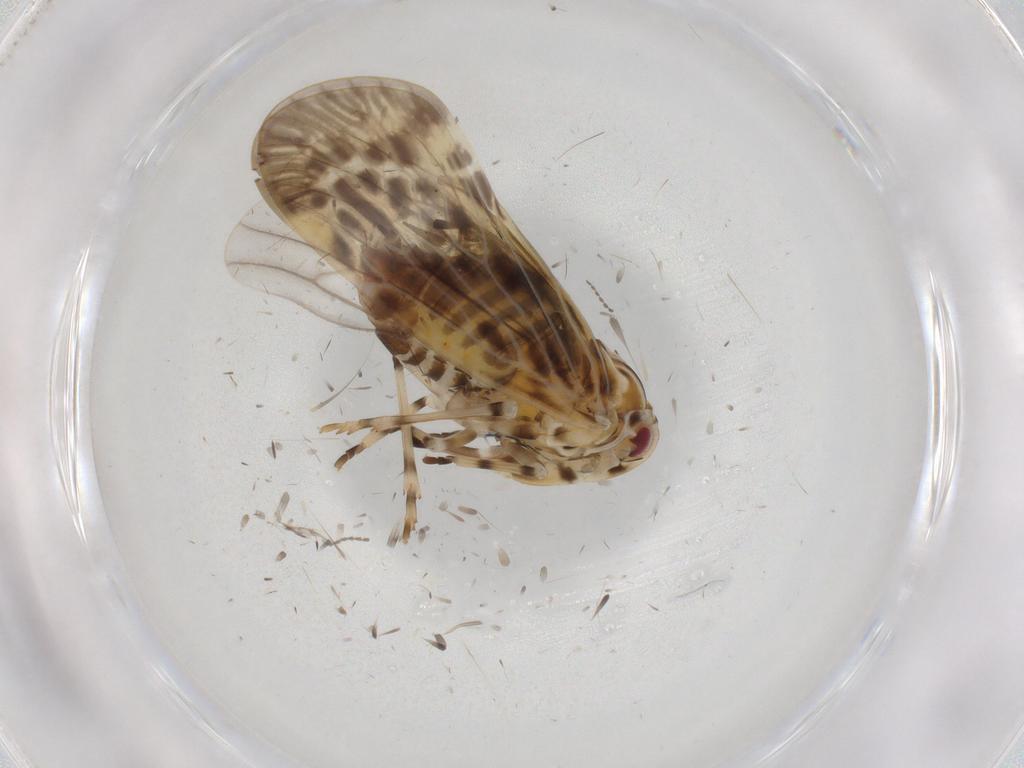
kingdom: Animalia
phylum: Arthropoda
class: Insecta
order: Hemiptera
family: Derbidae
